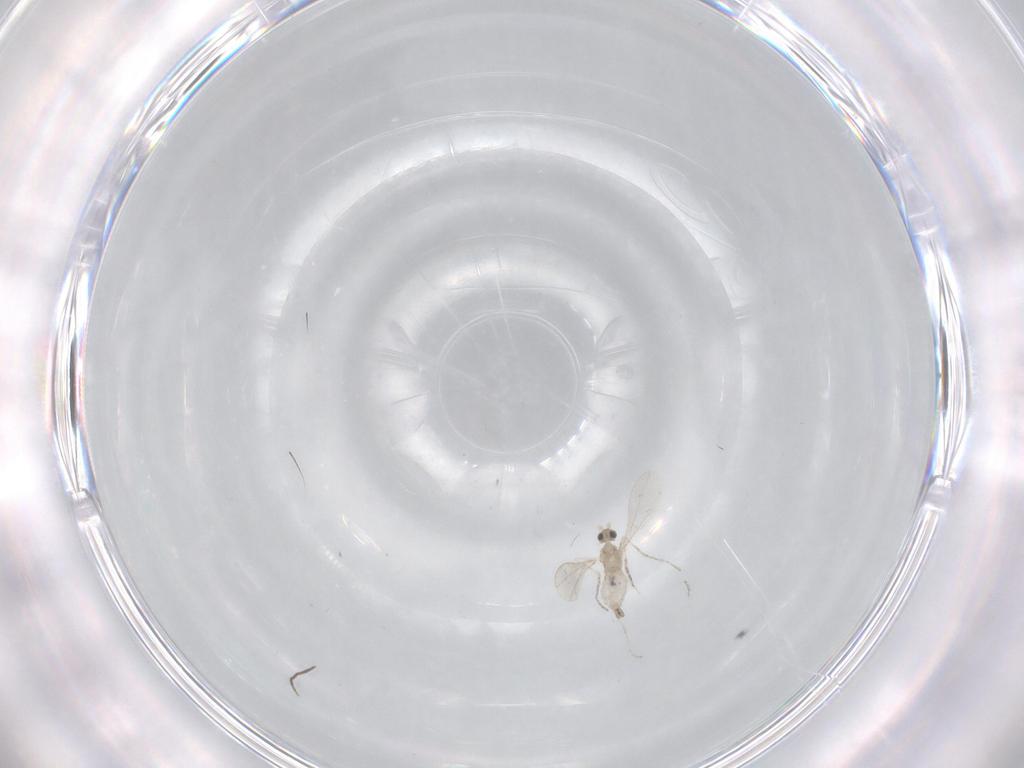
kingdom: Animalia
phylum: Arthropoda
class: Insecta
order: Diptera
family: Cecidomyiidae
